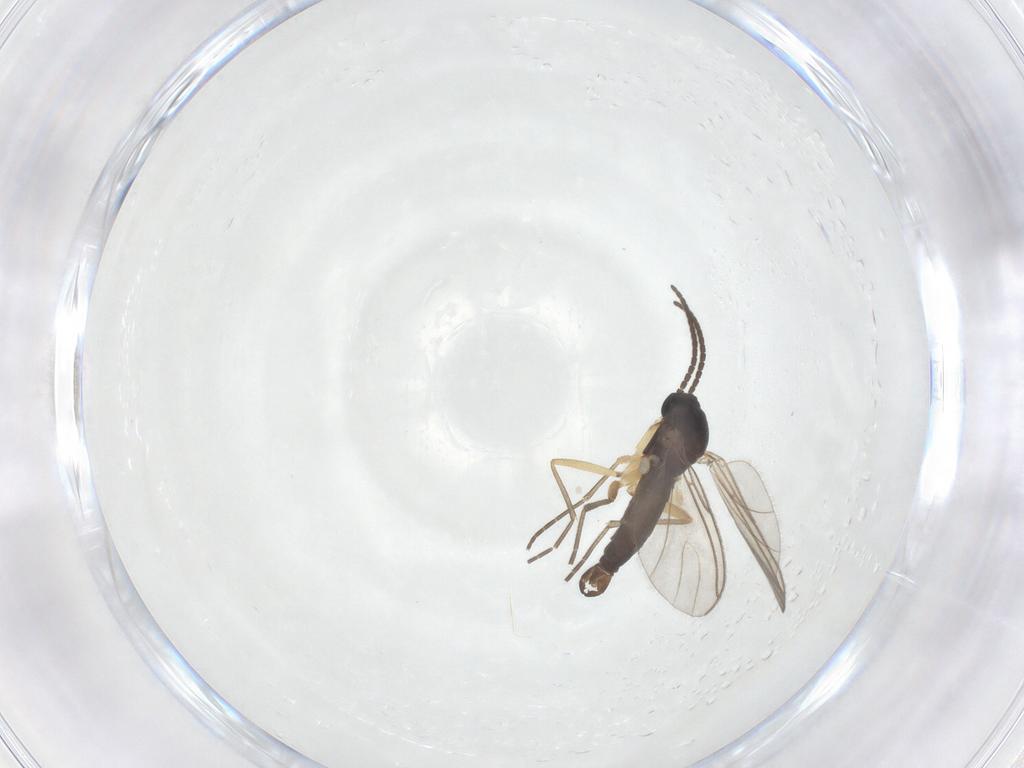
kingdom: Animalia
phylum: Arthropoda
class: Insecta
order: Diptera
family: Sciaridae
